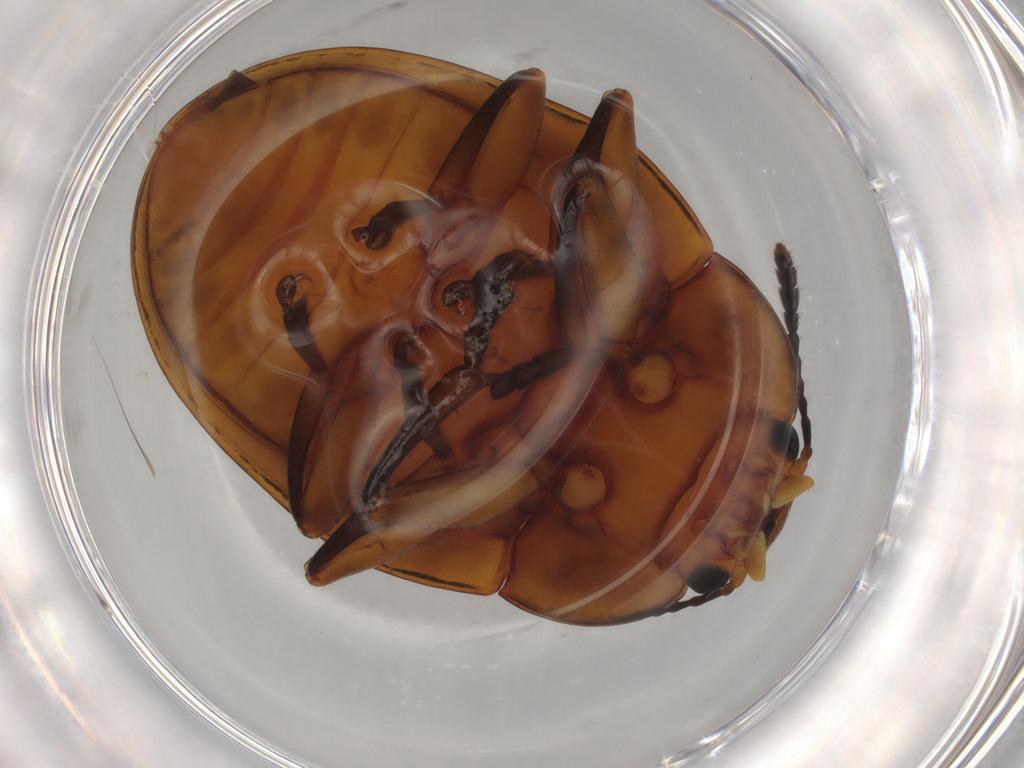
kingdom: Animalia
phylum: Arthropoda
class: Insecta
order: Coleoptera
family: Erotylidae
